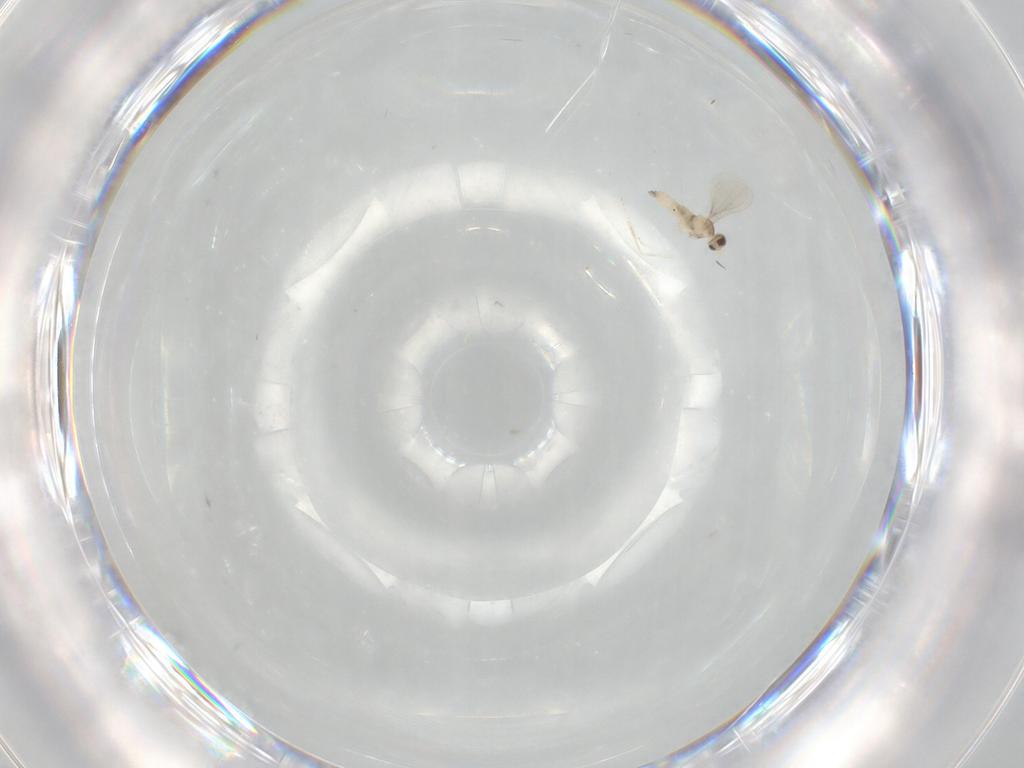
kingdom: Animalia
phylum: Arthropoda
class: Insecta
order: Diptera
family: Cecidomyiidae
